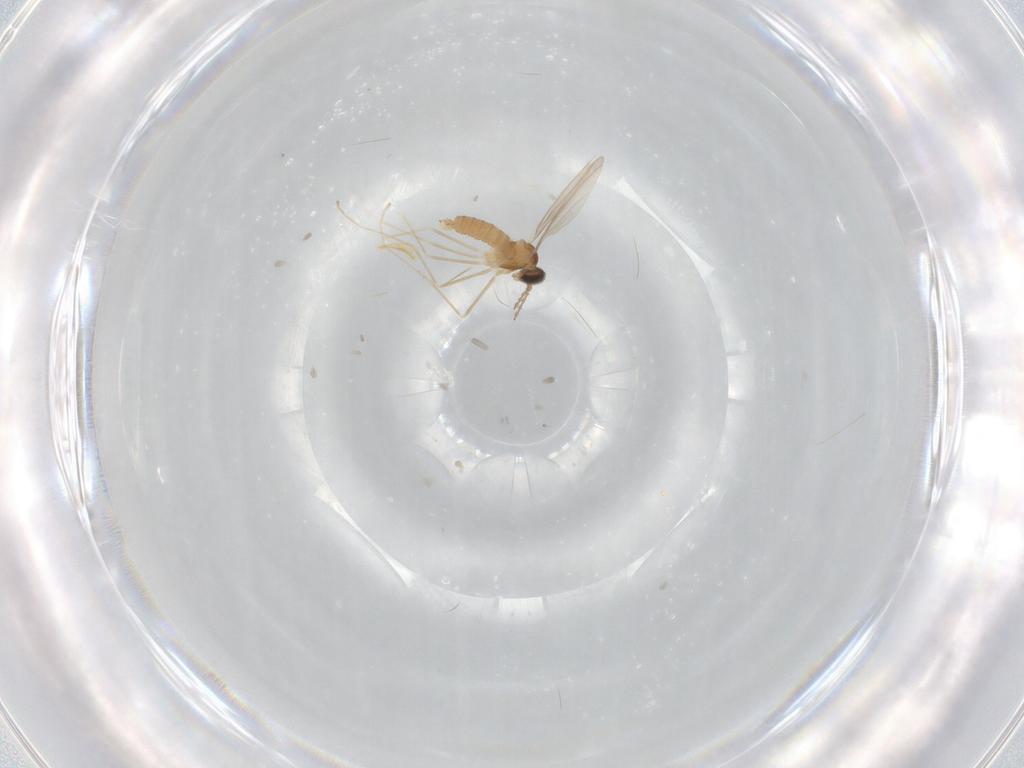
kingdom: Animalia
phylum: Arthropoda
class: Insecta
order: Diptera
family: Cecidomyiidae
